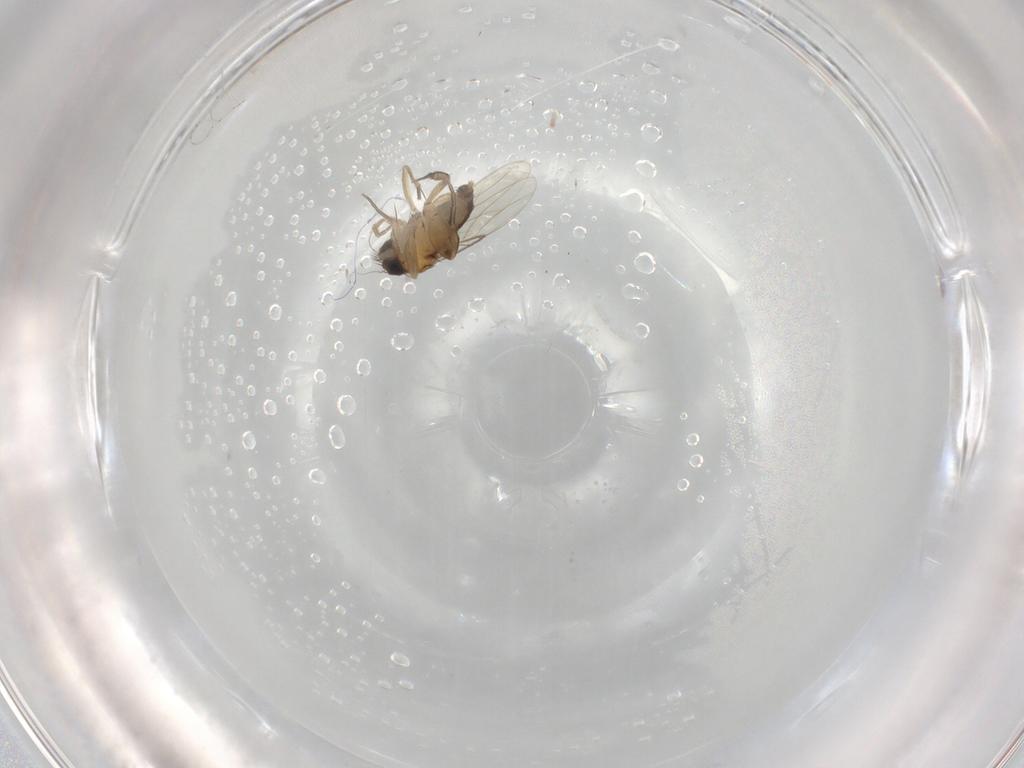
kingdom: Animalia
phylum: Arthropoda
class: Insecta
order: Diptera
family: Phoridae
